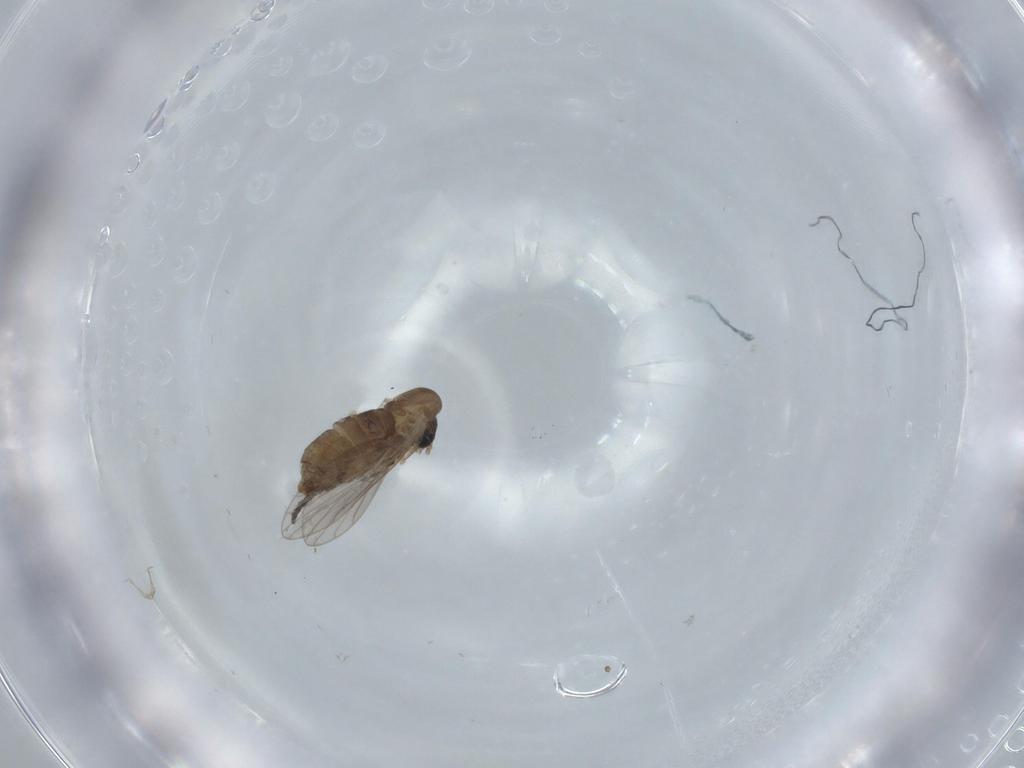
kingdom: Animalia
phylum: Arthropoda
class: Insecta
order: Diptera
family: Psychodidae
